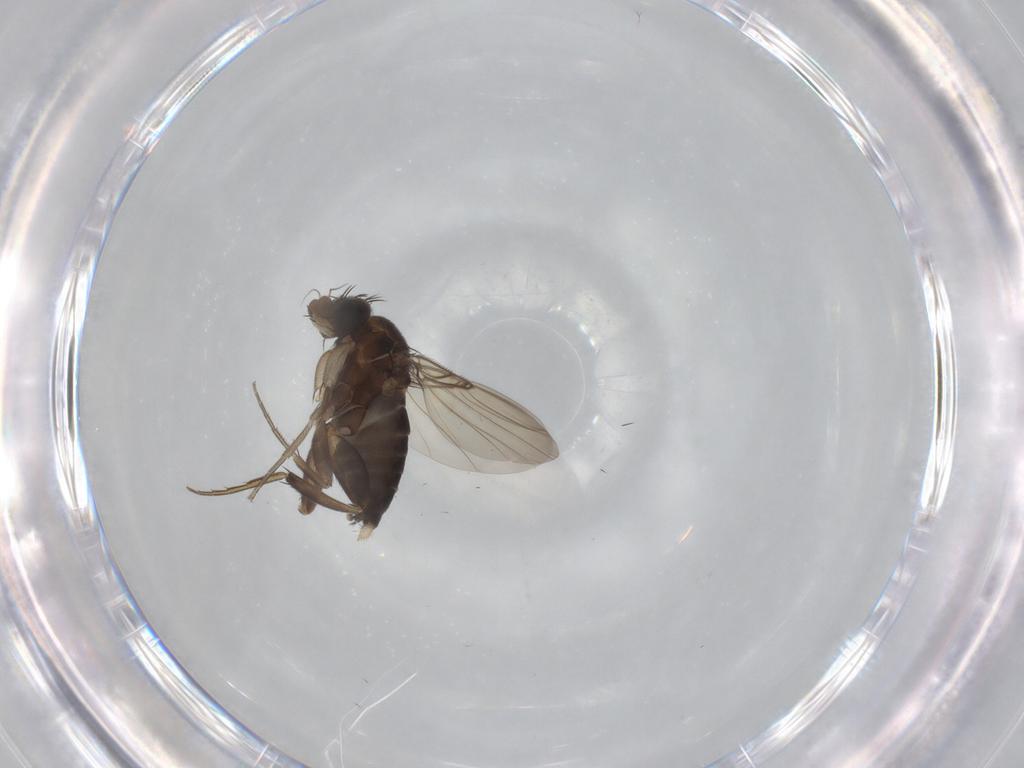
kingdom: Animalia
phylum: Arthropoda
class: Insecta
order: Diptera
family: Phoridae
